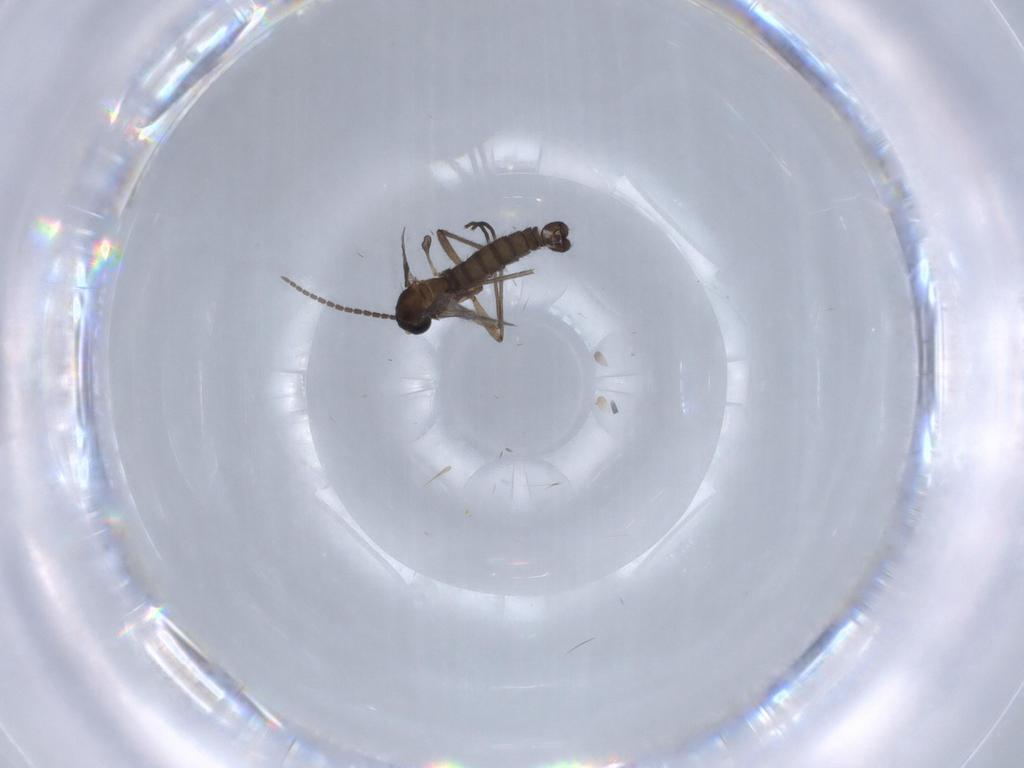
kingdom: Animalia
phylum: Arthropoda
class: Insecta
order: Diptera
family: Sciaridae
